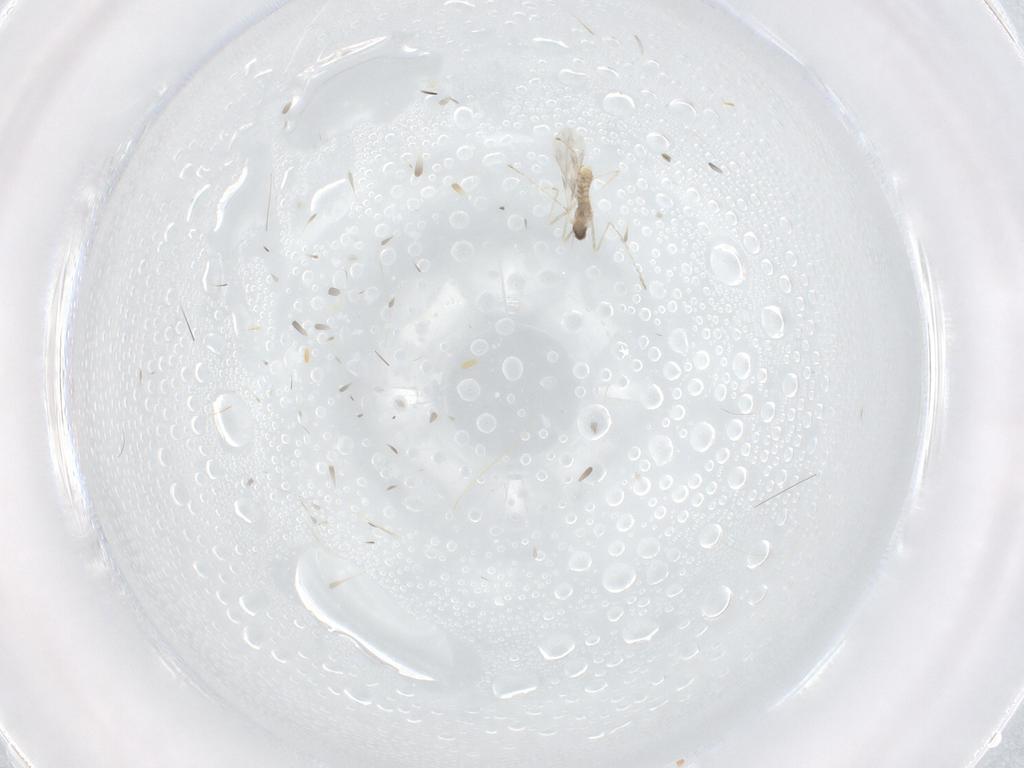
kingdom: Animalia
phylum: Arthropoda
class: Insecta
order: Diptera
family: Cecidomyiidae
